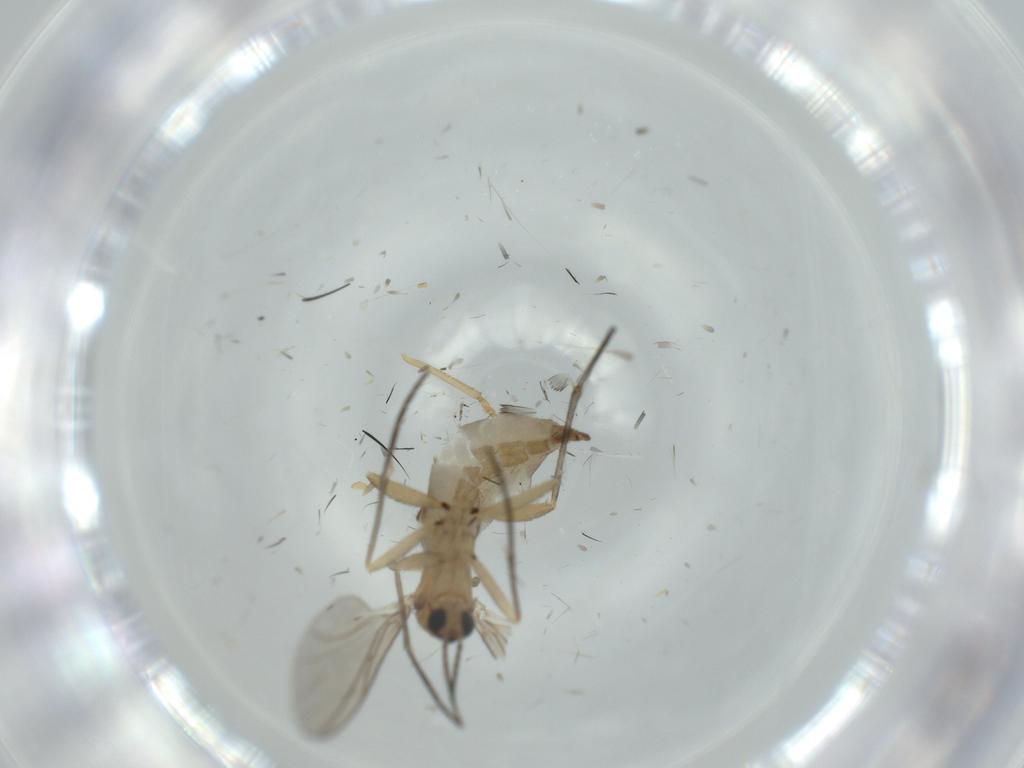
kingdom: Animalia
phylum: Arthropoda
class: Insecta
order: Diptera
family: Sciaridae
